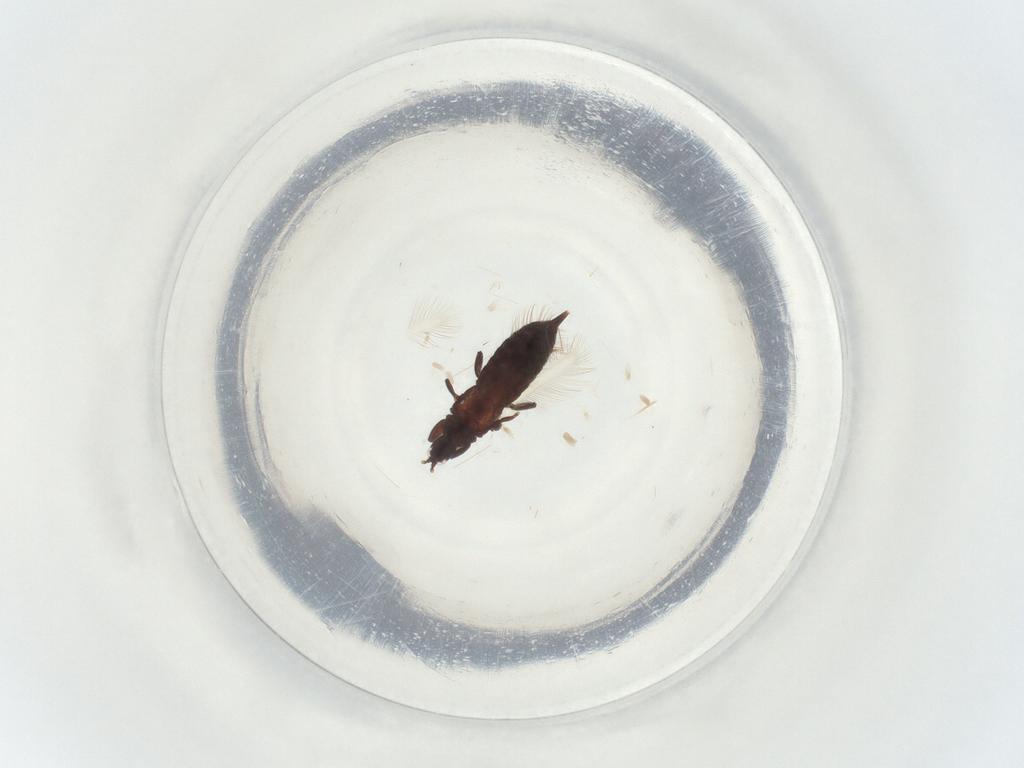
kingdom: Animalia
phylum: Arthropoda
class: Insecta
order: Thysanoptera
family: Phlaeothripidae
